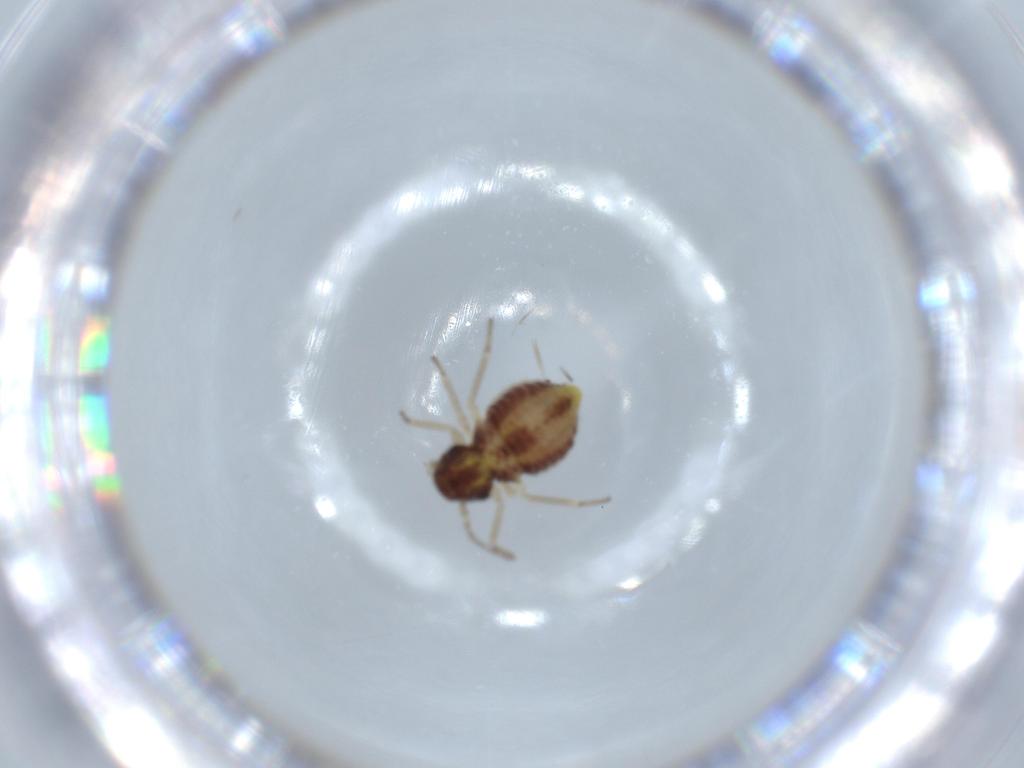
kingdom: Animalia
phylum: Arthropoda
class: Insecta
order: Psocodea
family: Myopsocidae
